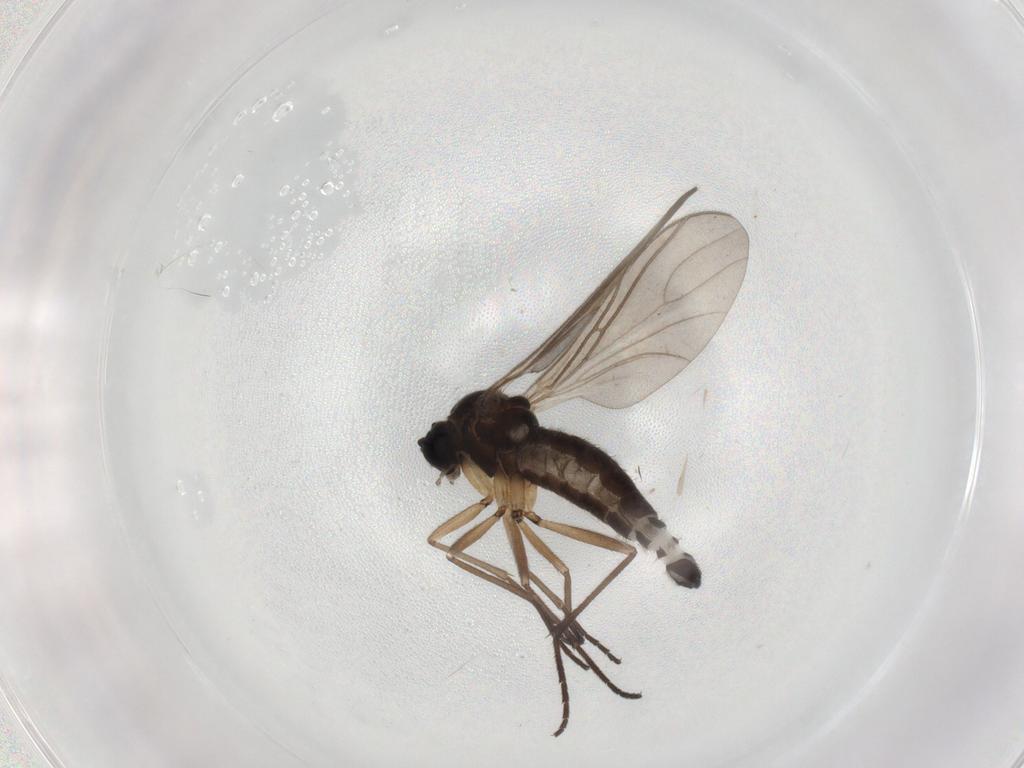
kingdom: Animalia
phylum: Arthropoda
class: Insecta
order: Diptera
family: Sciaridae
